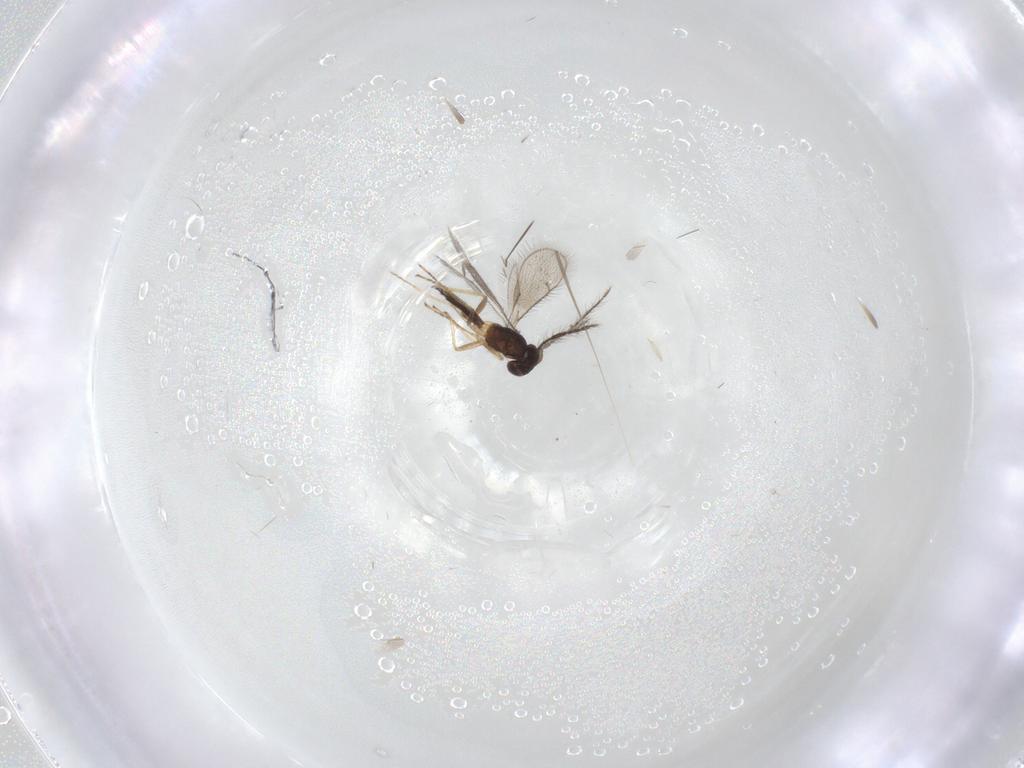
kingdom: Animalia
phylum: Arthropoda
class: Insecta
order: Hymenoptera
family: Eulophidae
